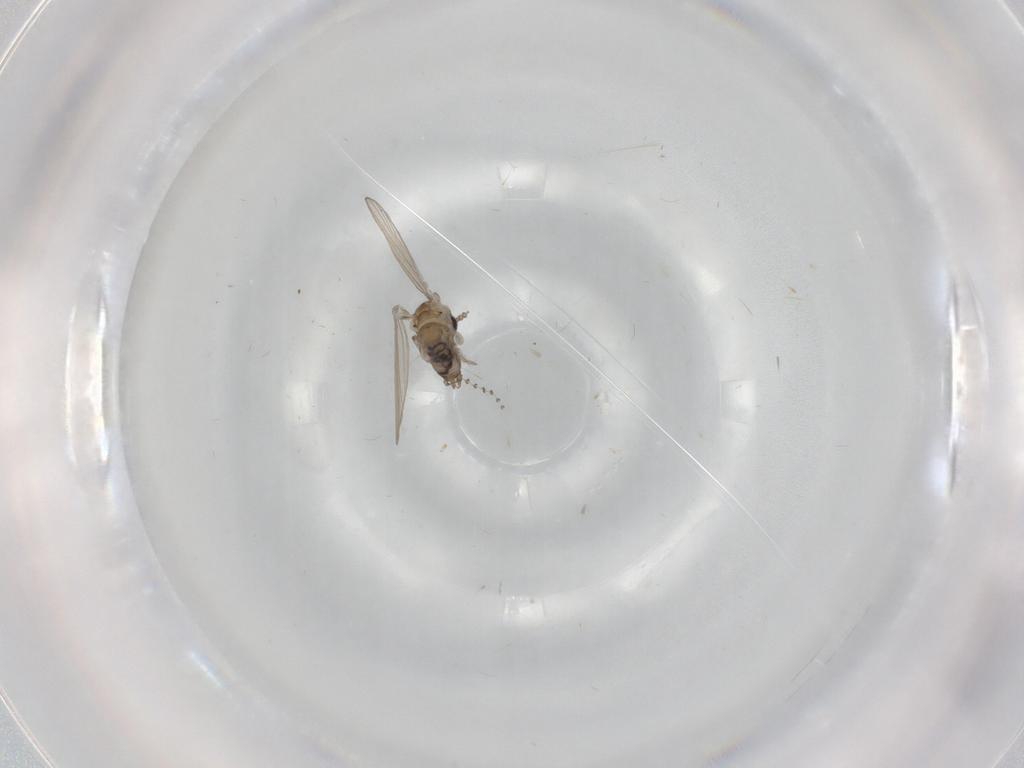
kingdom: Animalia
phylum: Arthropoda
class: Insecta
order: Diptera
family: Psychodidae
